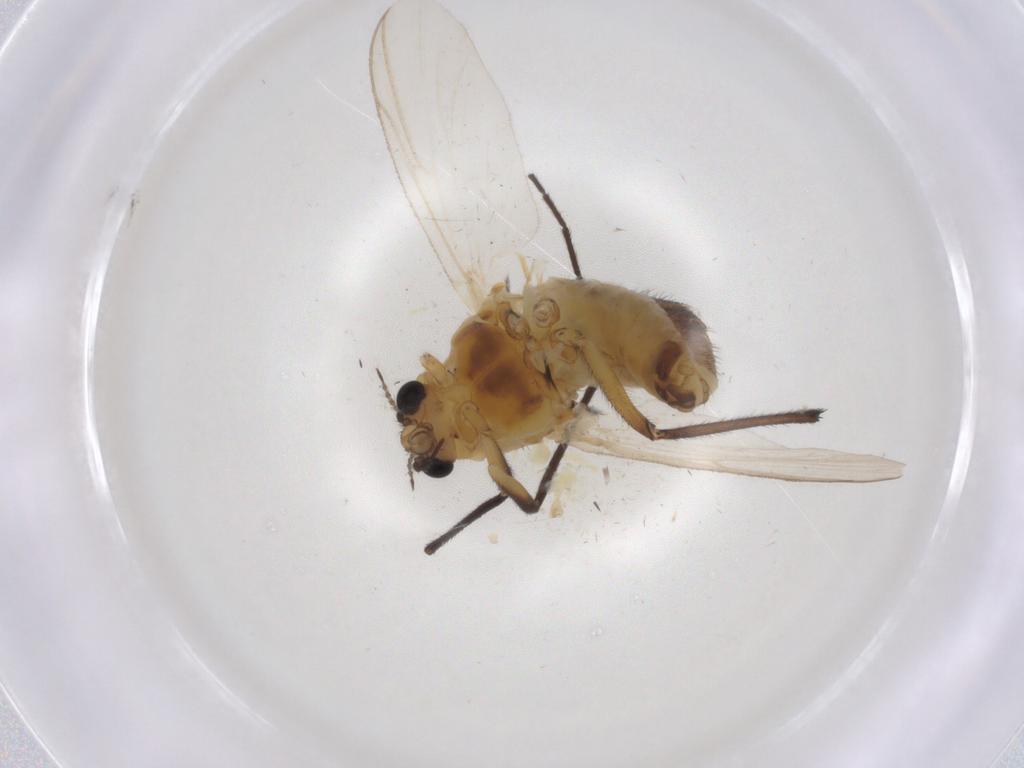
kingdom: Animalia
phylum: Arthropoda
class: Insecta
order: Diptera
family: Chironomidae
